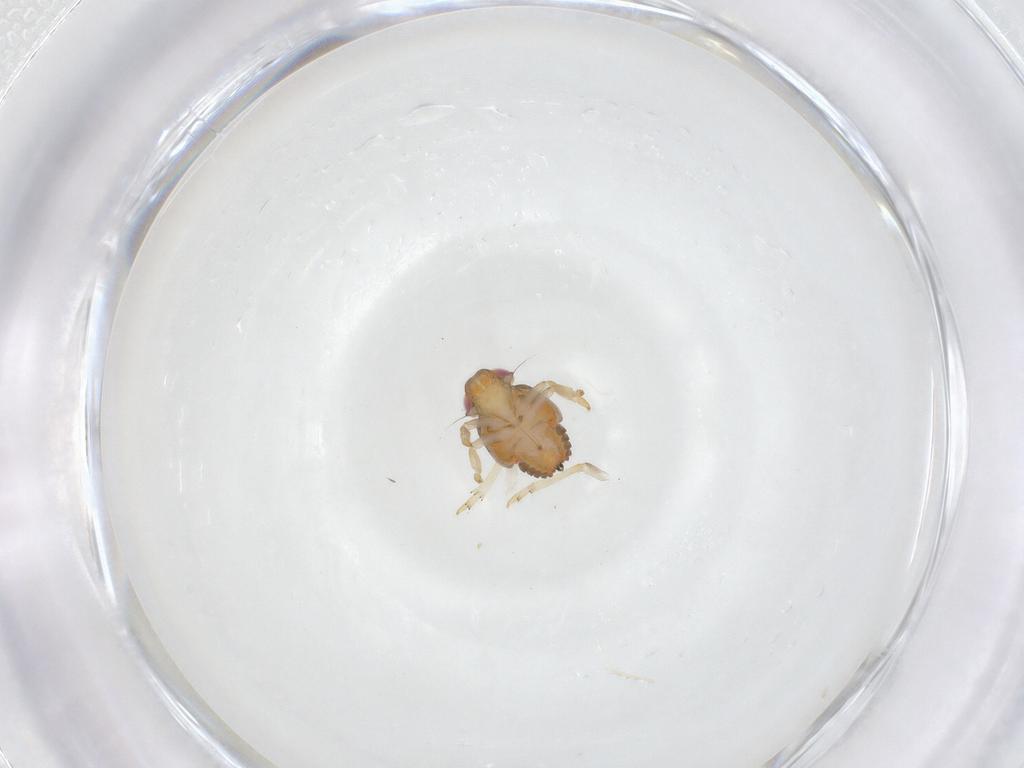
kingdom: Animalia
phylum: Arthropoda
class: Insecta
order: Hemiptera
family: Issidae
